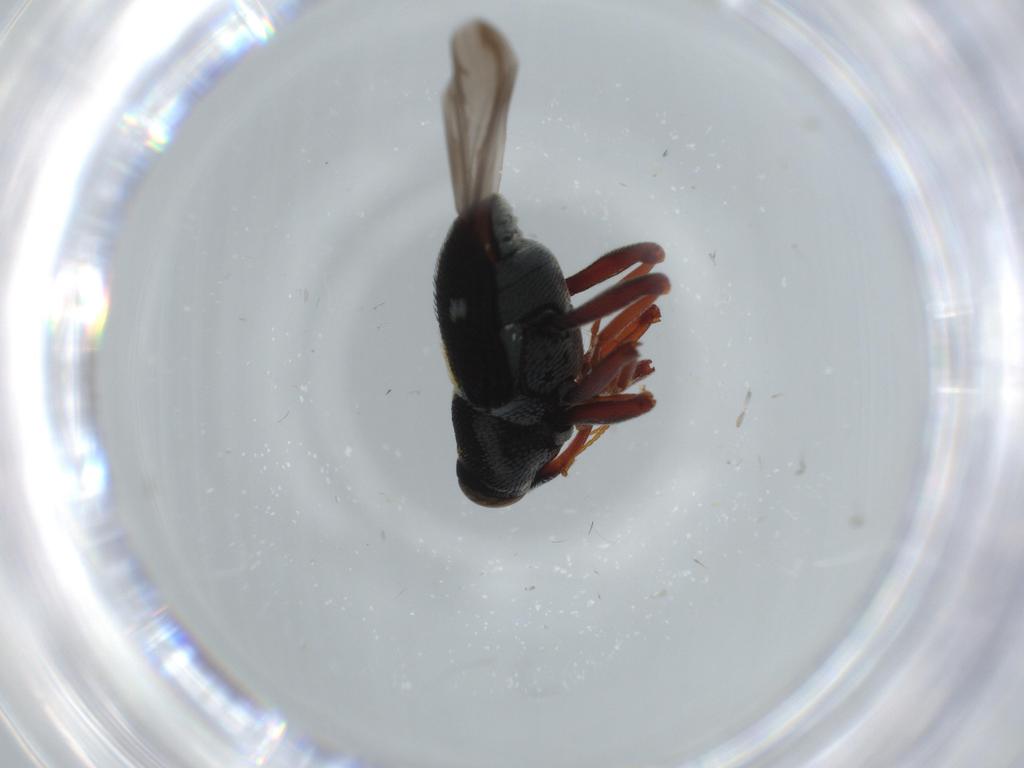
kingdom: Animalia
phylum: Arthropoda
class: Insecta
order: Coleoptera
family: Curculionidae
